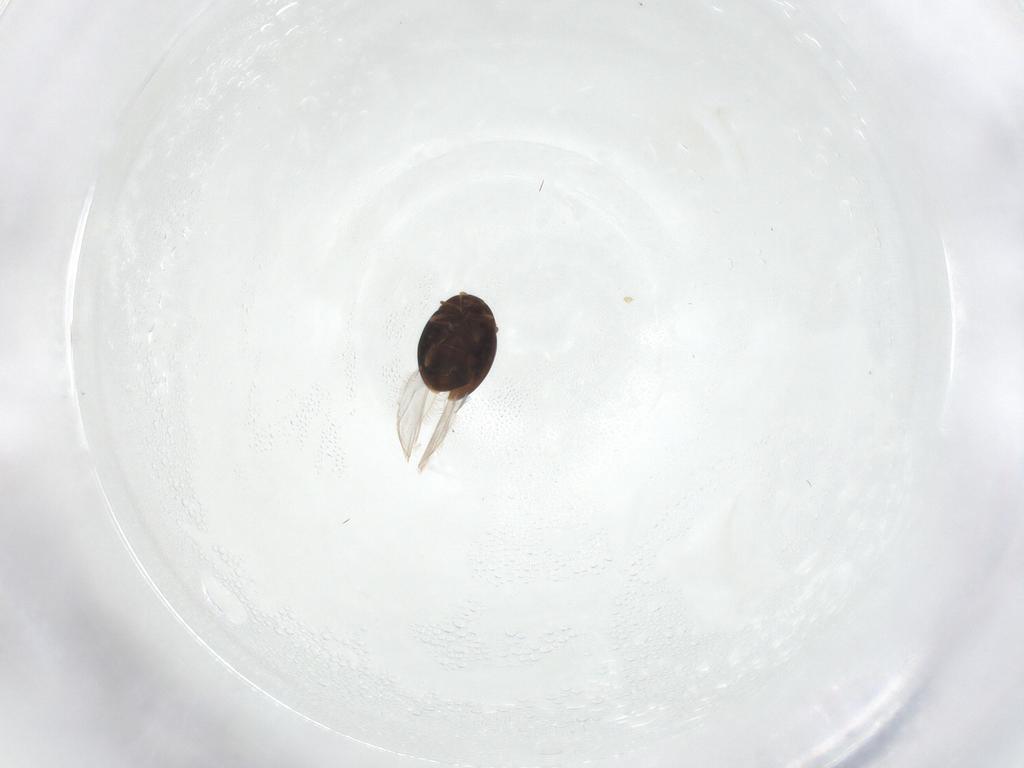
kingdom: Animalia
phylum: Arthropoda
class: Insecta
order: Coleoptera
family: Corylophidae
